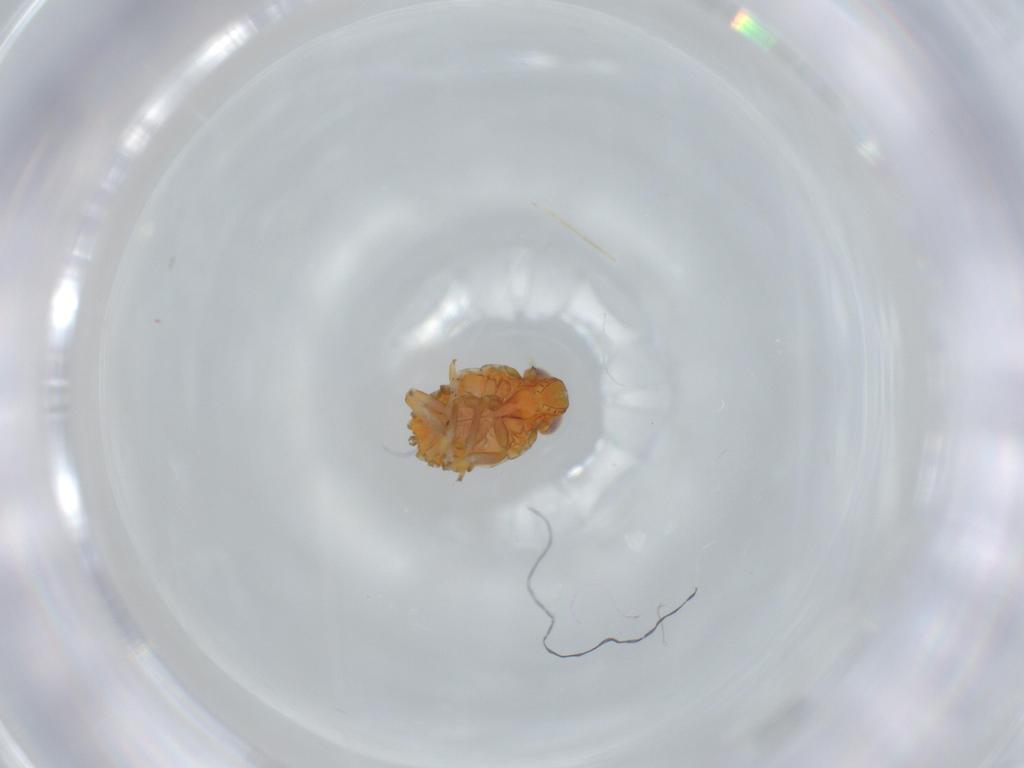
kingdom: Animalia
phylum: Arthropoda
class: Insecta
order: Hemiptera
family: Issidae
